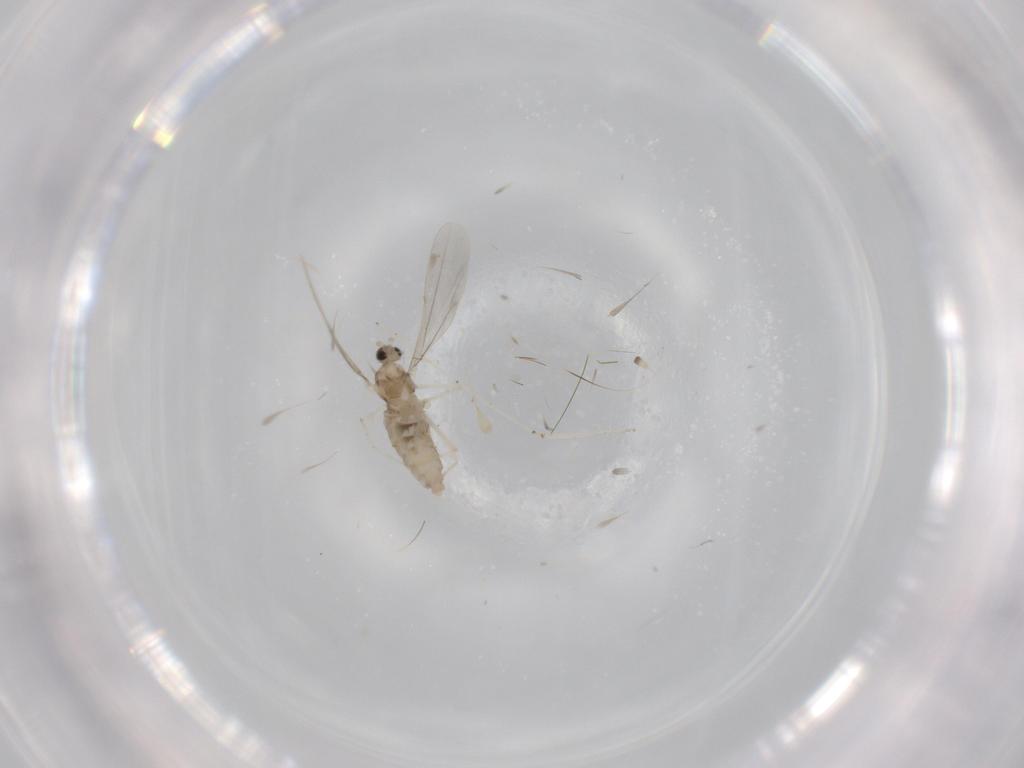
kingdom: Animalia
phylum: Arthropoda
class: Insecta
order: Diptera
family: Cecidomyiidae
